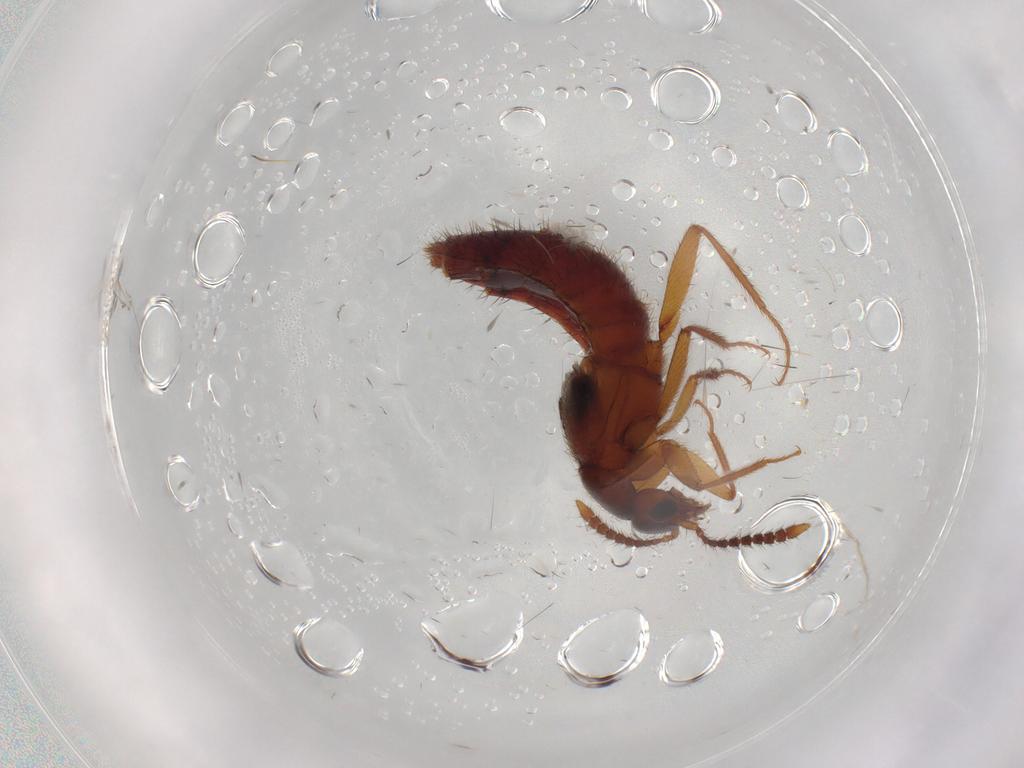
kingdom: Animalia
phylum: Arthropoda
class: Insecta
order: Coleoptera
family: Staphylinidae
